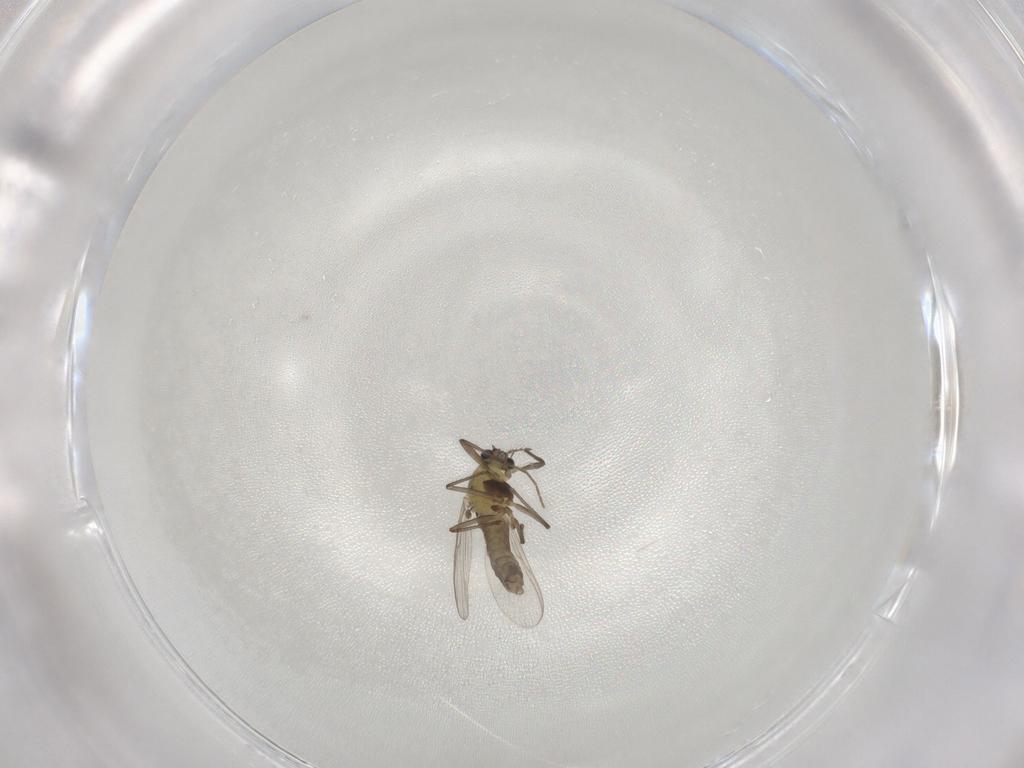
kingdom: Animalia
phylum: Arthropoda
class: Insecta
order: Diptera
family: Chironomidae
